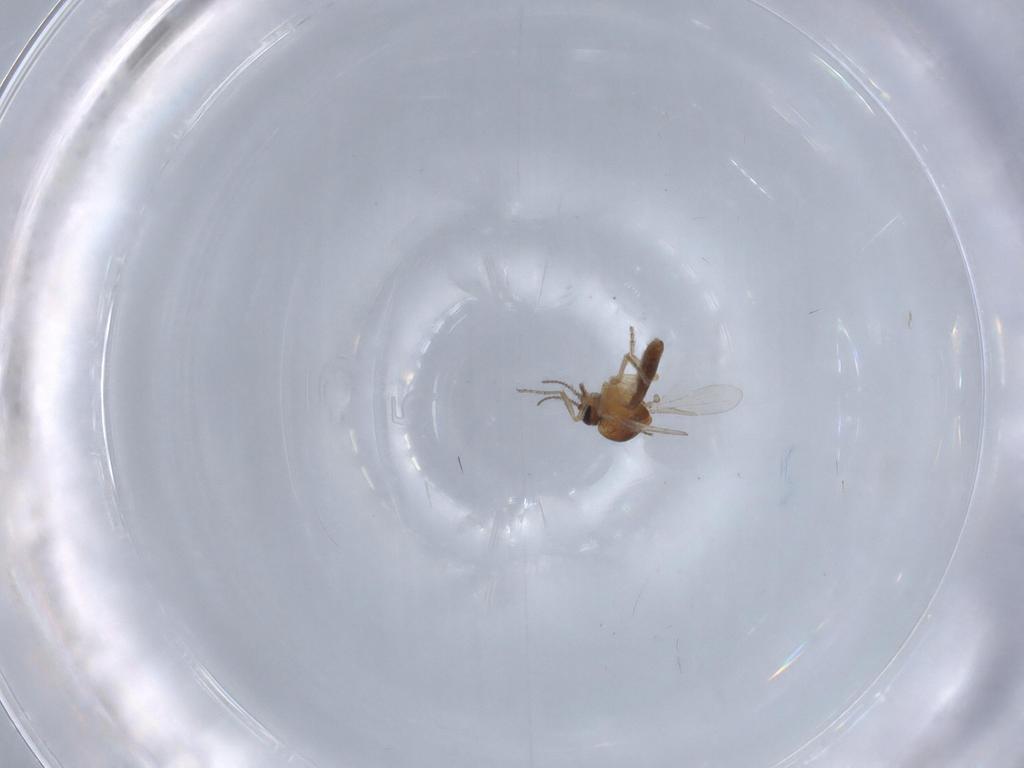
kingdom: Animalia
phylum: Arthropoda
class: Insecta
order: Diptera
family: Ceratopogonidae
